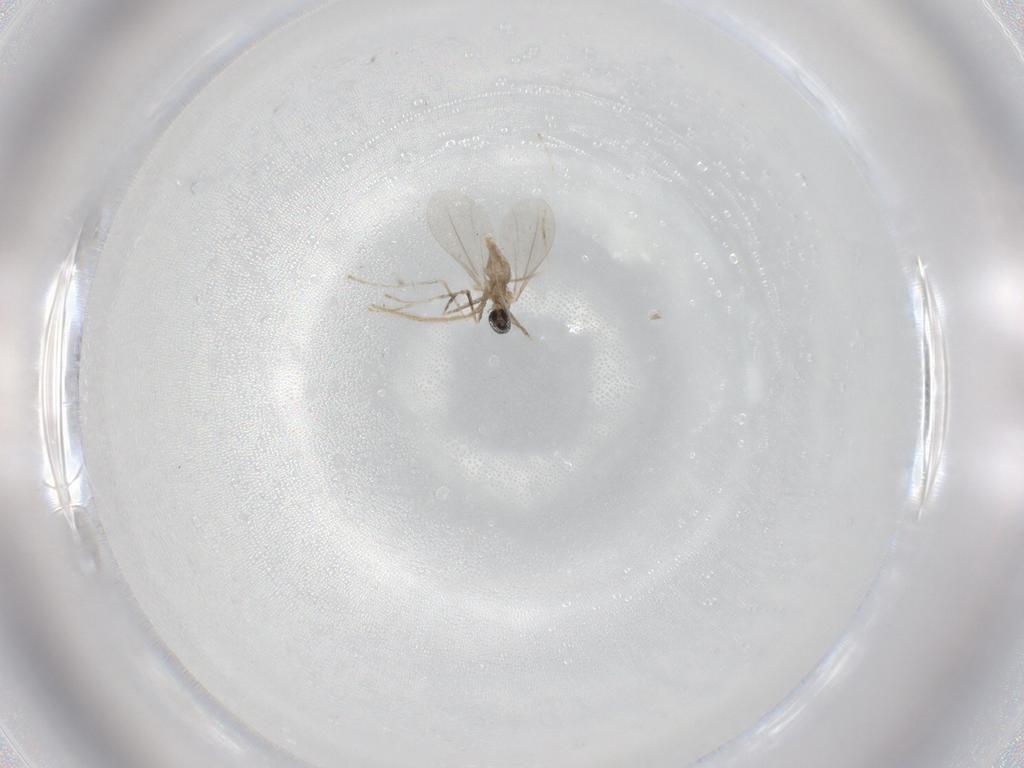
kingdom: Animalia
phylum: Arthropoda
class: Insecta
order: Diptera
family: Cecidomyiidae
